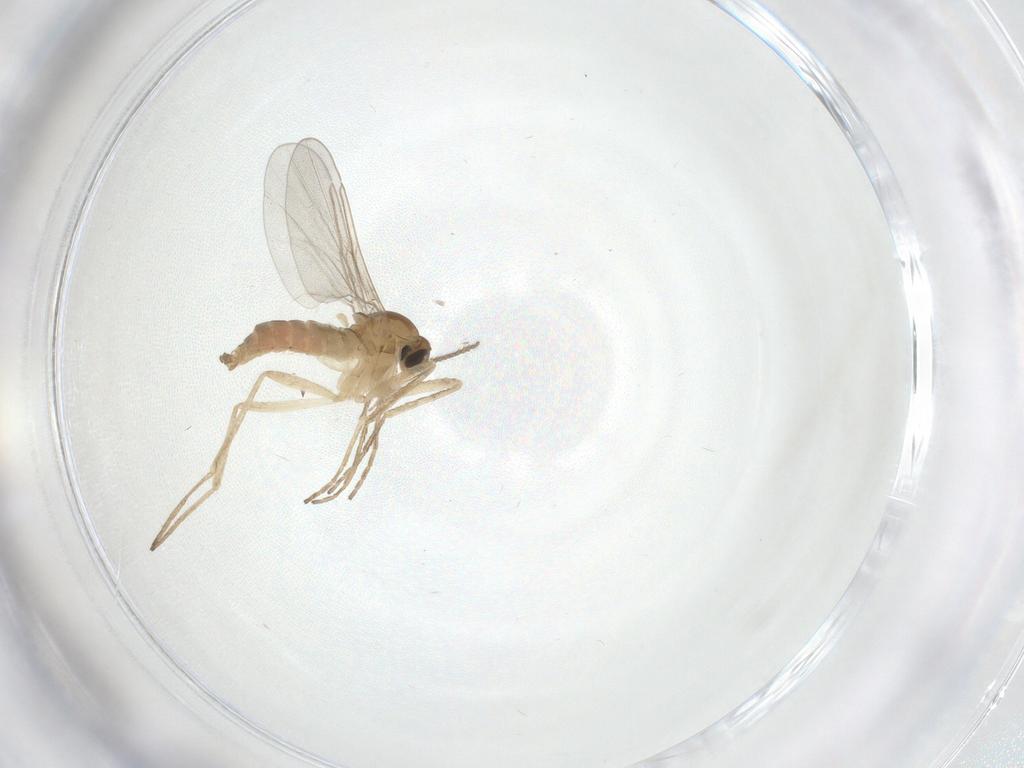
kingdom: Animalia
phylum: Arthropoda
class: Insecta
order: Diptera
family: Cecidomyiidae
